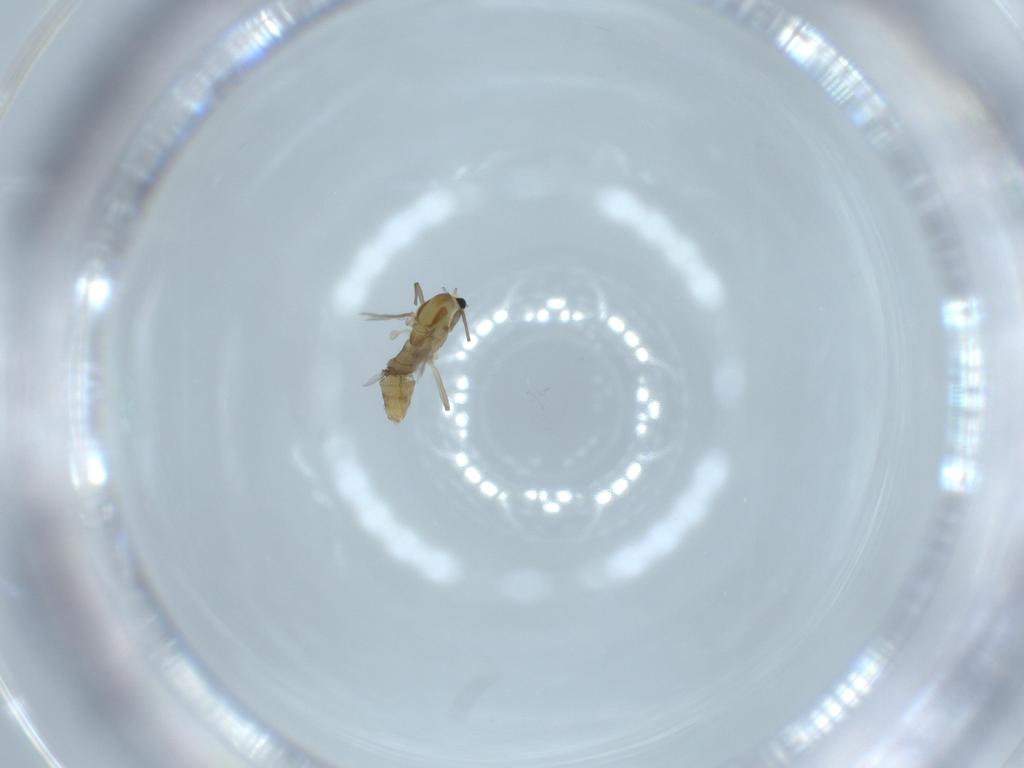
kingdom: Animalia
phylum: Arthropoda
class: Insecta
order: Diptera
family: Chironomidae
